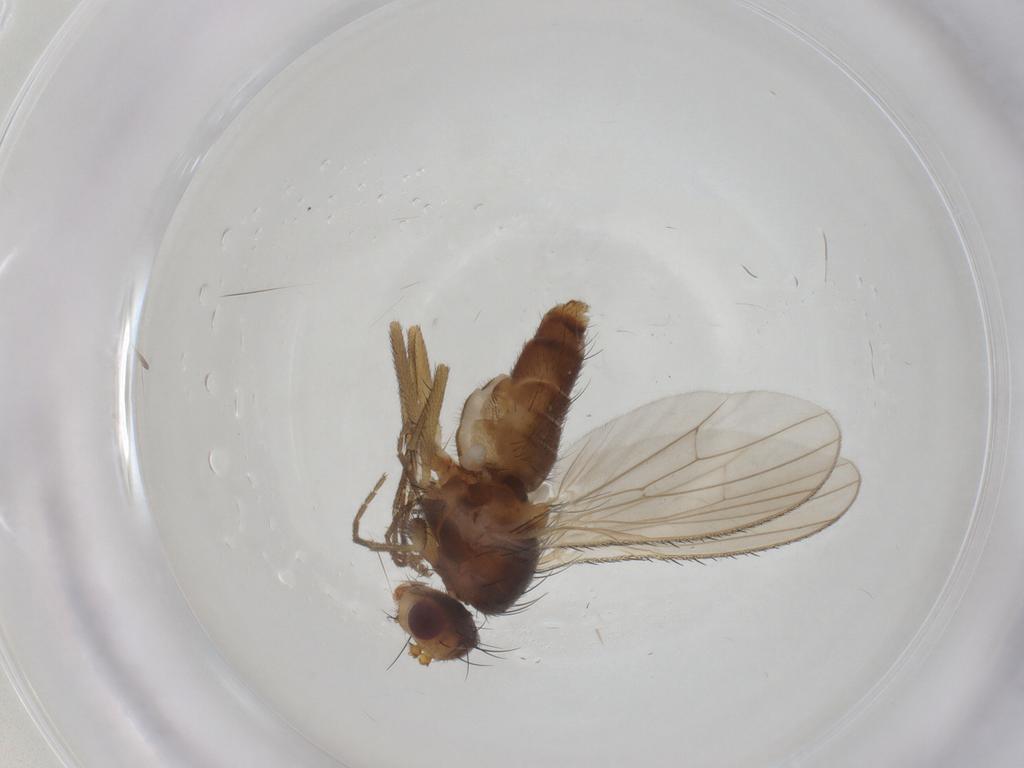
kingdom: Animalia
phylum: Arthropoda
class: Insecta
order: Diptera
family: Heleomyzidae
